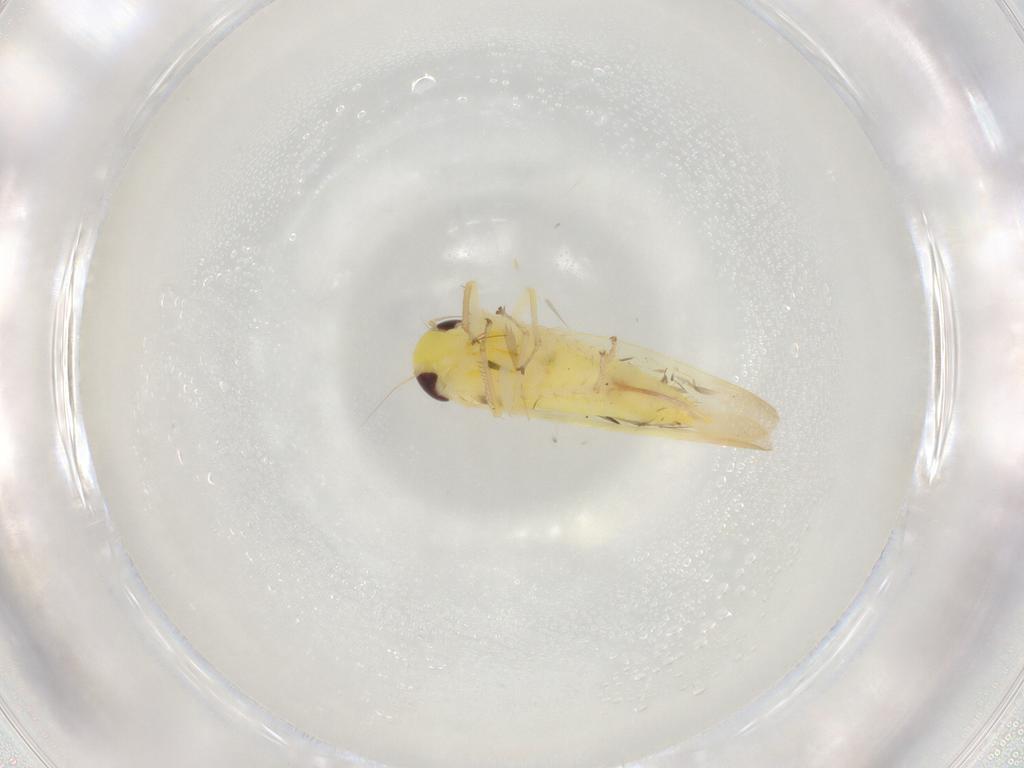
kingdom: Animalia
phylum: Arthropoda
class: Insecta
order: Hemiptera
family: Cicadellidae
